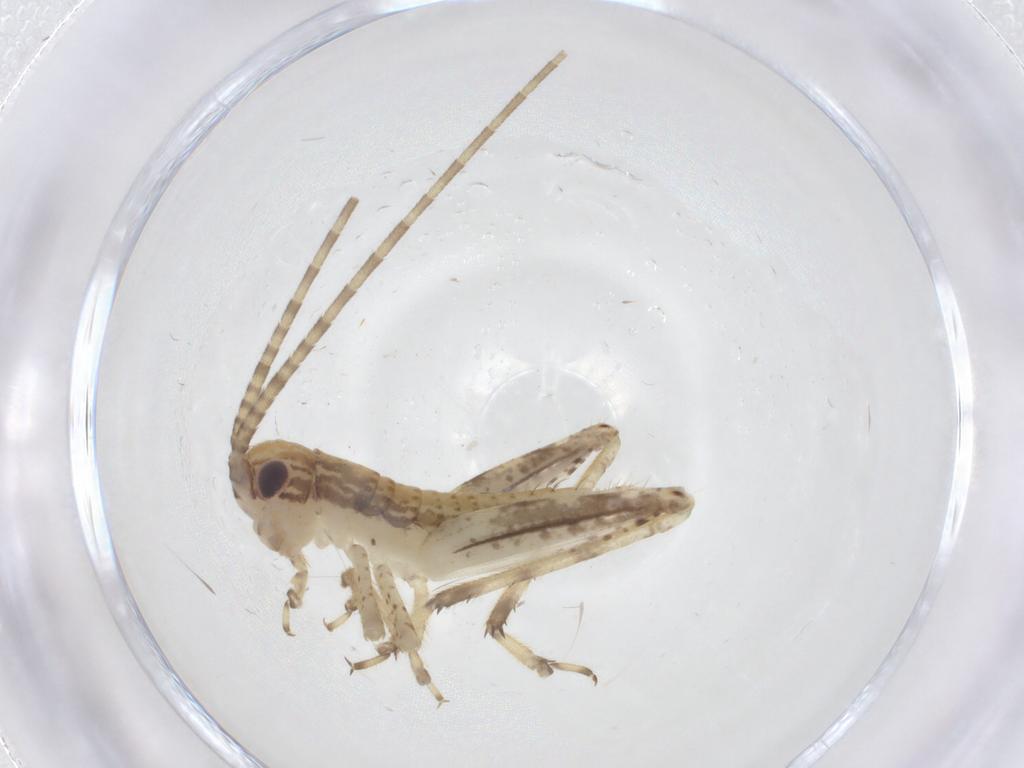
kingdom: Animalia
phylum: Arthropoda
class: Insecta
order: Orthoptera
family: Gryllidae
